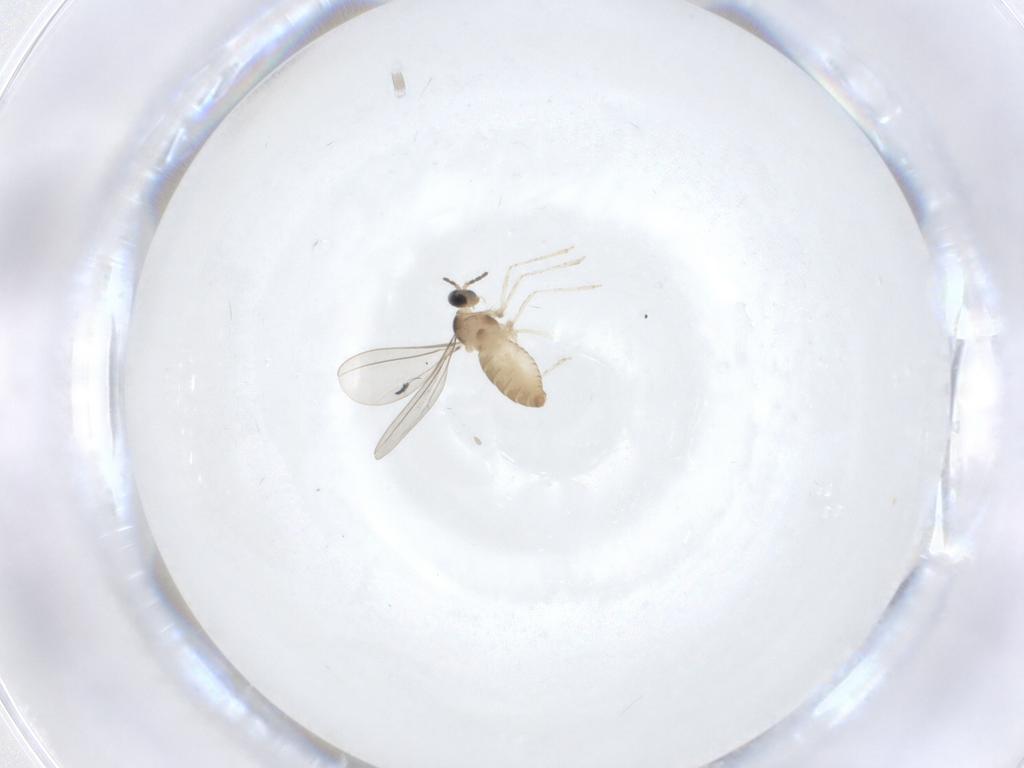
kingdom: Animalia
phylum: Arthropoda
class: Insecta
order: Diptera
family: Cecidomyiidae
